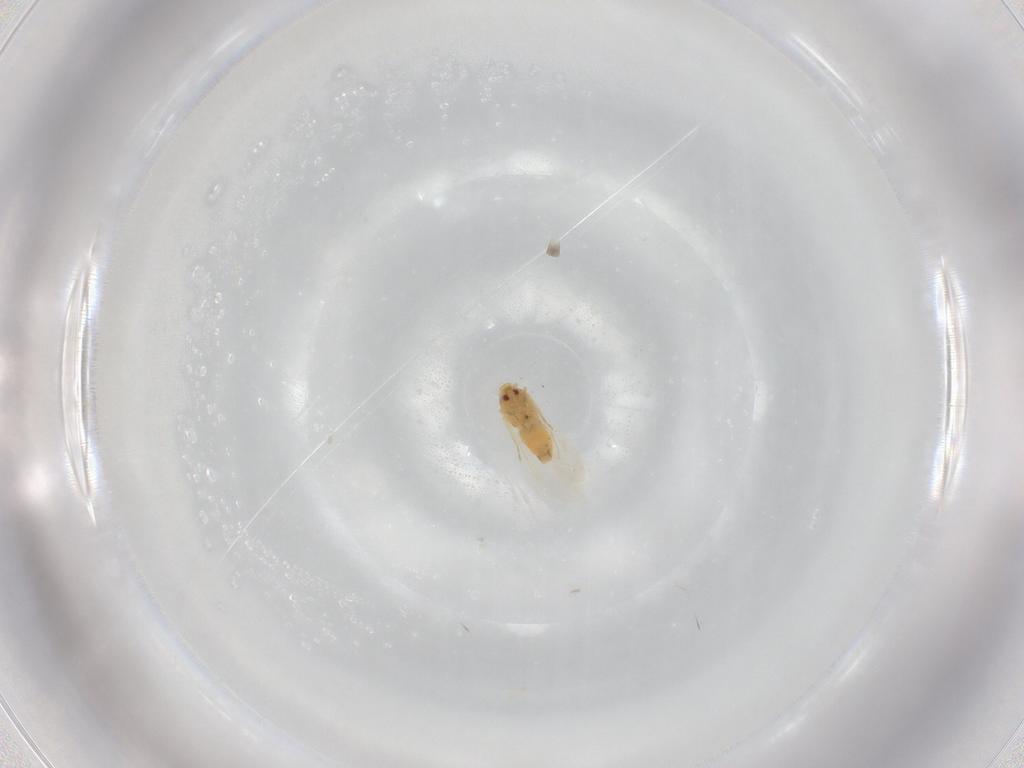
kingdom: Animalia
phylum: Arthropoda
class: Insecta
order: Hemiptera
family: Aleyrodidae
